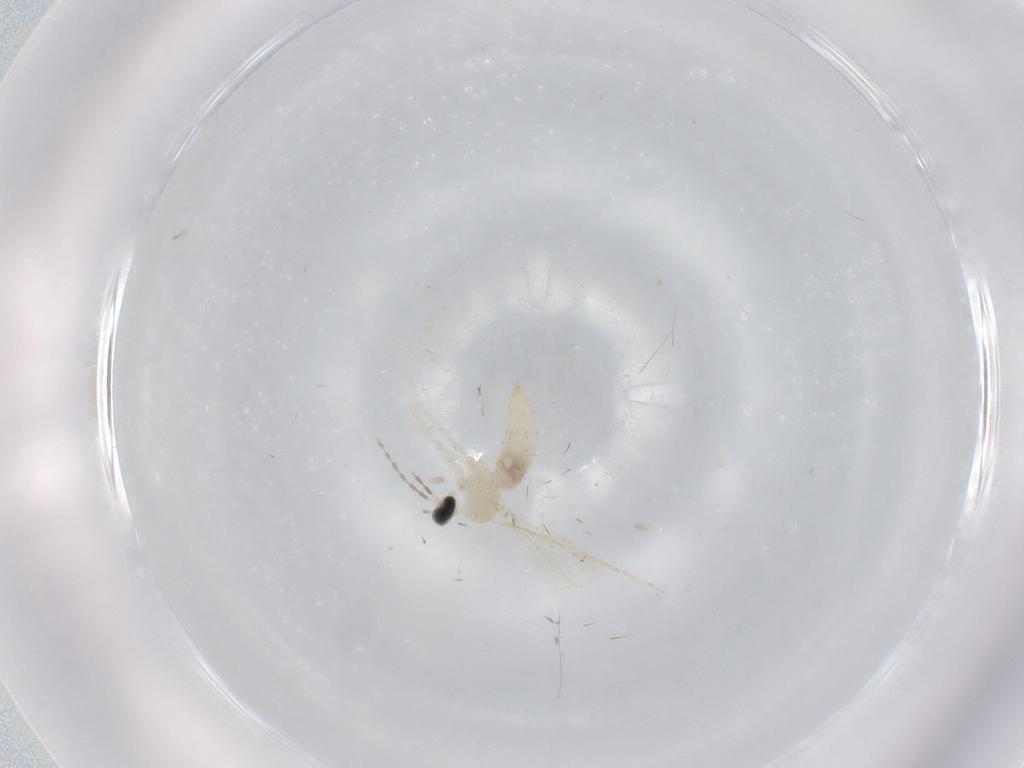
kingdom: Animalia
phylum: Arthropoda
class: Insecta
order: Diptera
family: Cecidomyiidae
